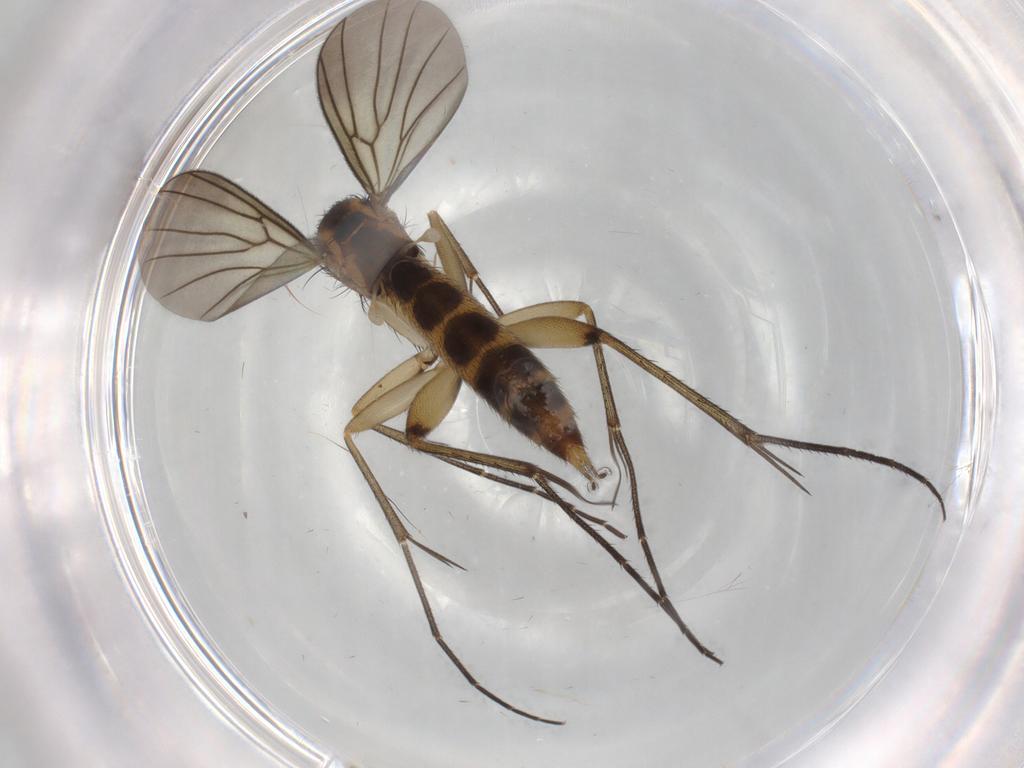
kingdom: Animalia
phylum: Arthropoda
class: Insecta
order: Diptera
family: Mycetophilidae
